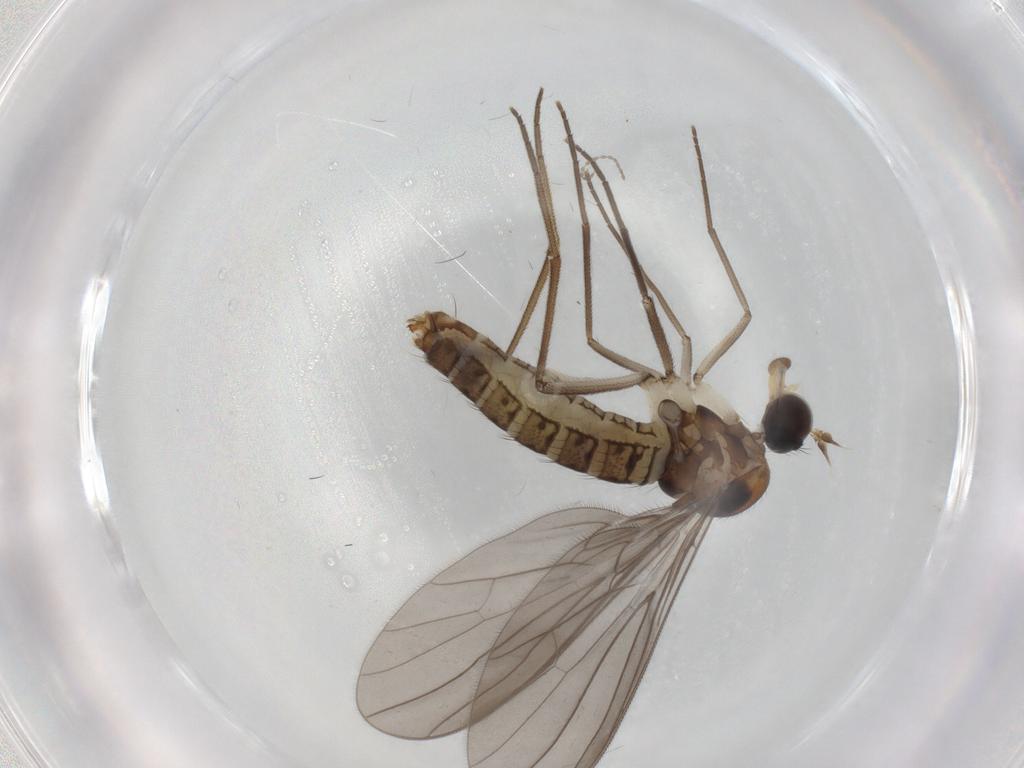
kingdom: Animalia
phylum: Arthropoda
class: Insecta
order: Diptera
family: Cecidomyiidae
